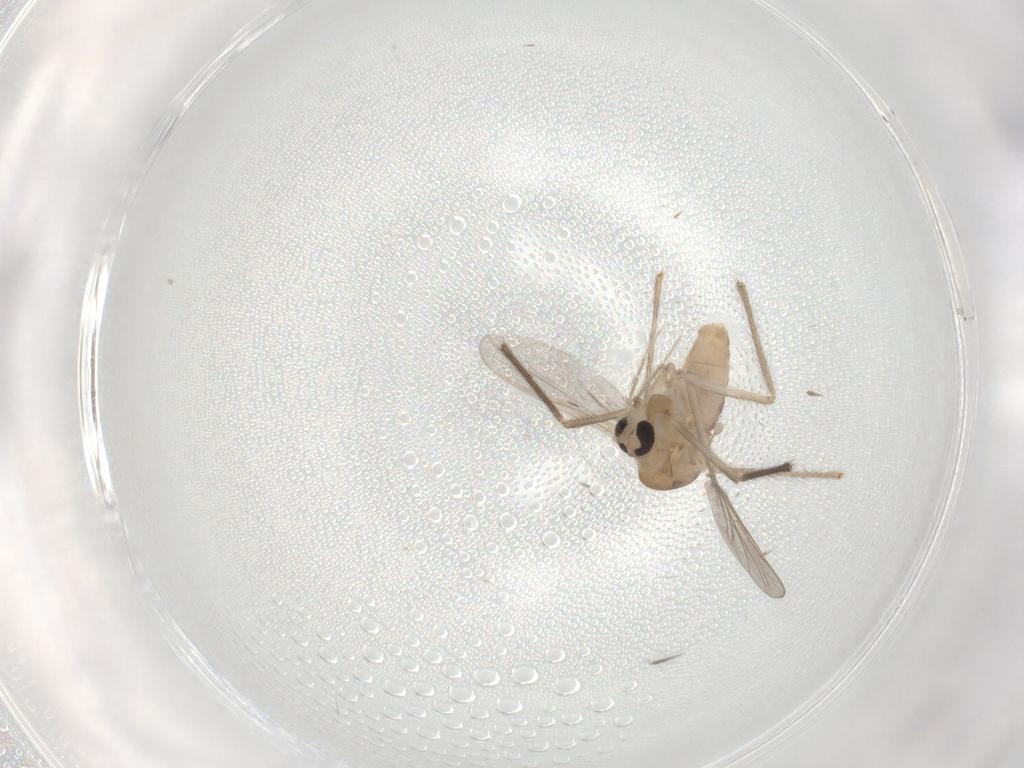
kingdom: Animalia
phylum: Arthropoda
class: Insecta
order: Diptera
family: Chironomidae
